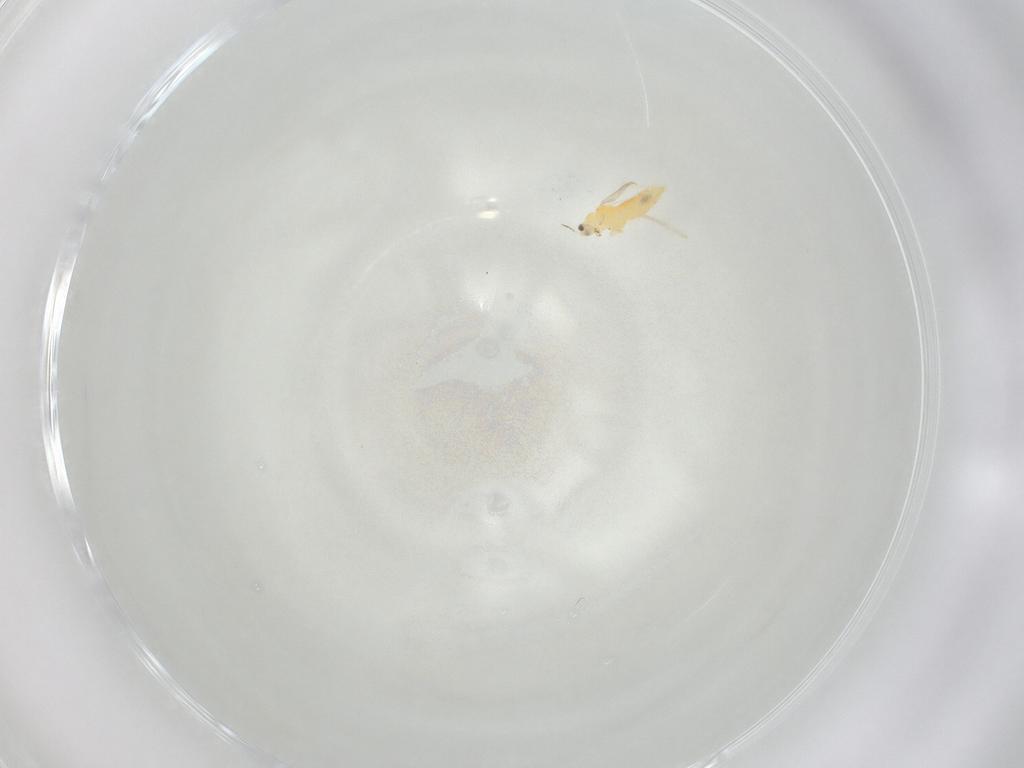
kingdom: Animalia
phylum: Arthropoda
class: Insecta
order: Thysanoptera
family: Thripidae
